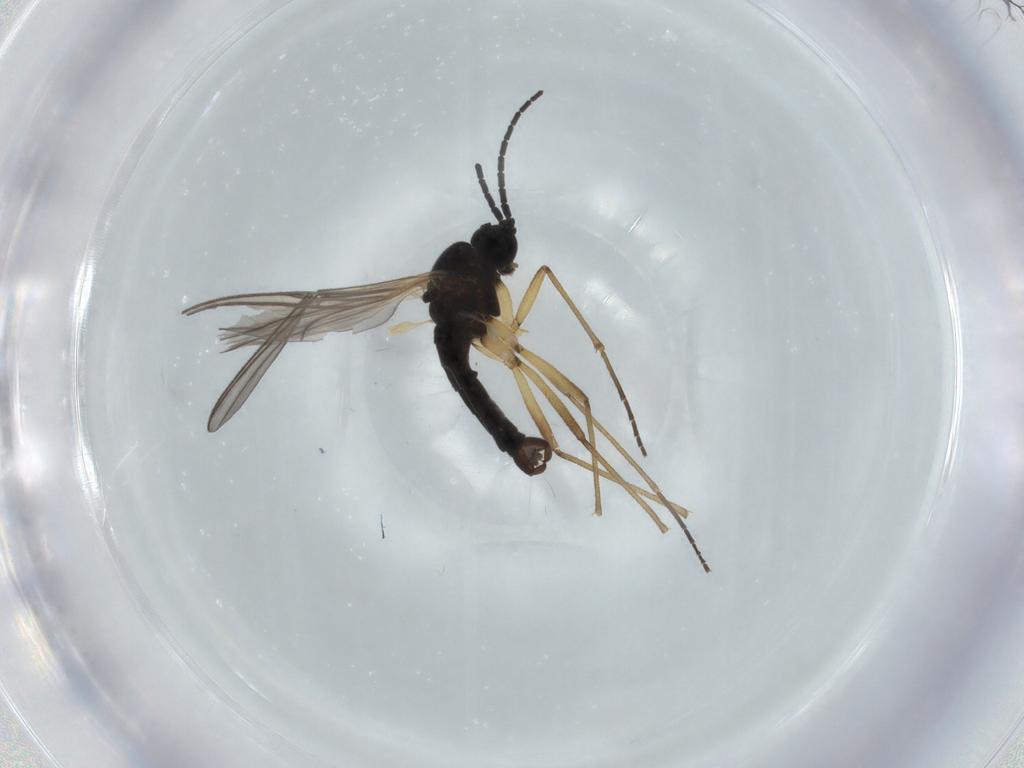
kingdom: Animalia
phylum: Arthropoda
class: Insecta
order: Diptera
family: Sciaridae
